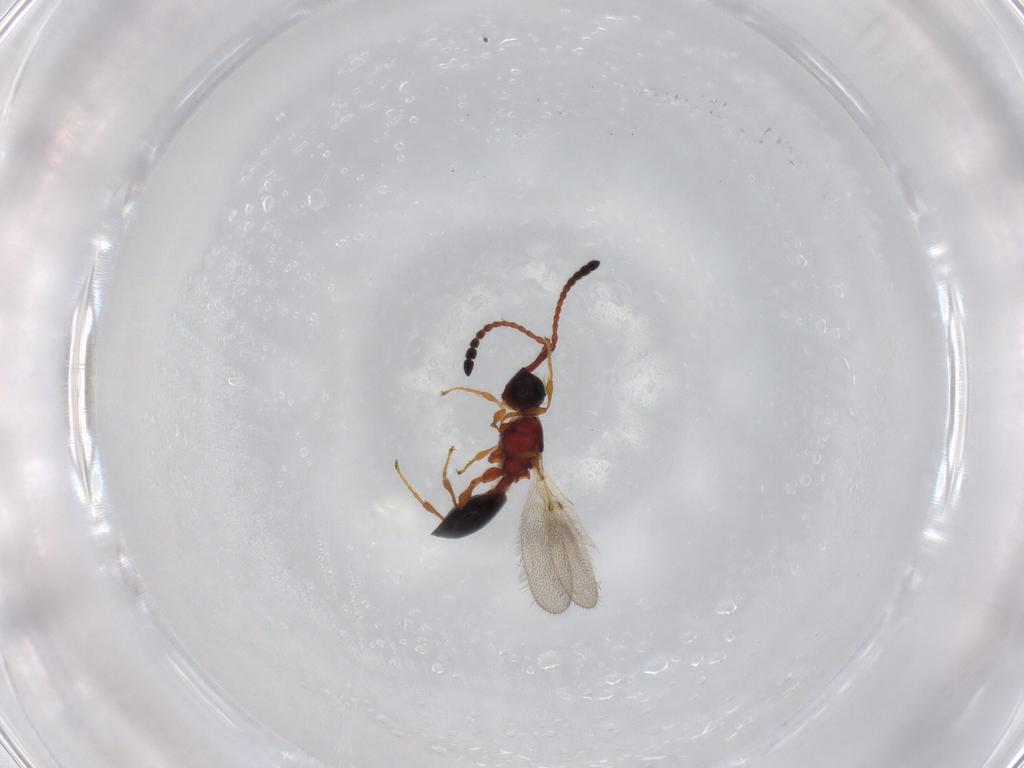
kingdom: Animalia
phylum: Arthropoda
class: Insecta
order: Hymenoptera
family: Diapriidae
